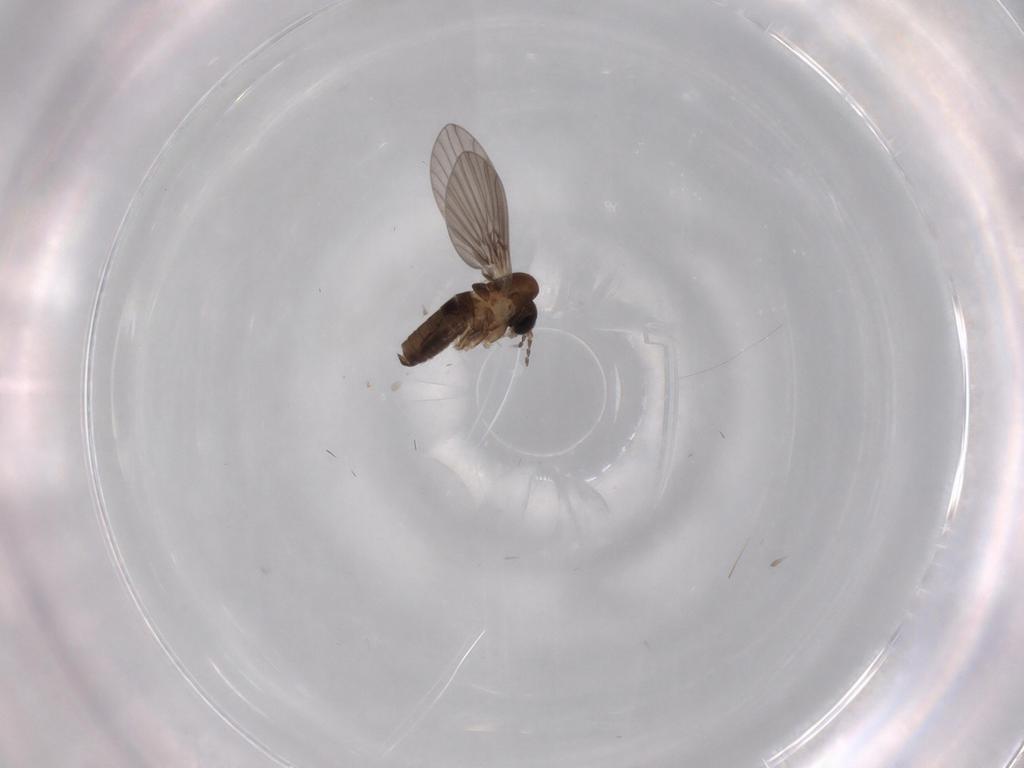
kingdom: Animalia
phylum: Arthropoda
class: Insecta
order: Diptera
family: Psychodidae
